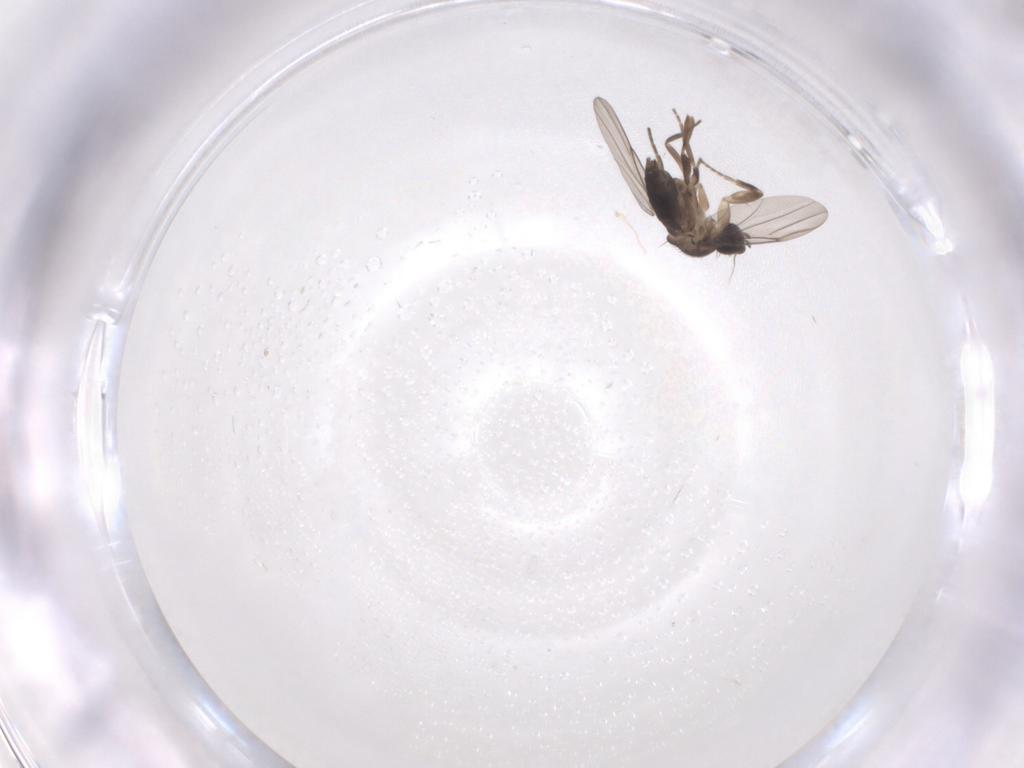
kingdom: Animalia
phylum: Arthropoda
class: Insecta
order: Diptera
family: Phoridae
